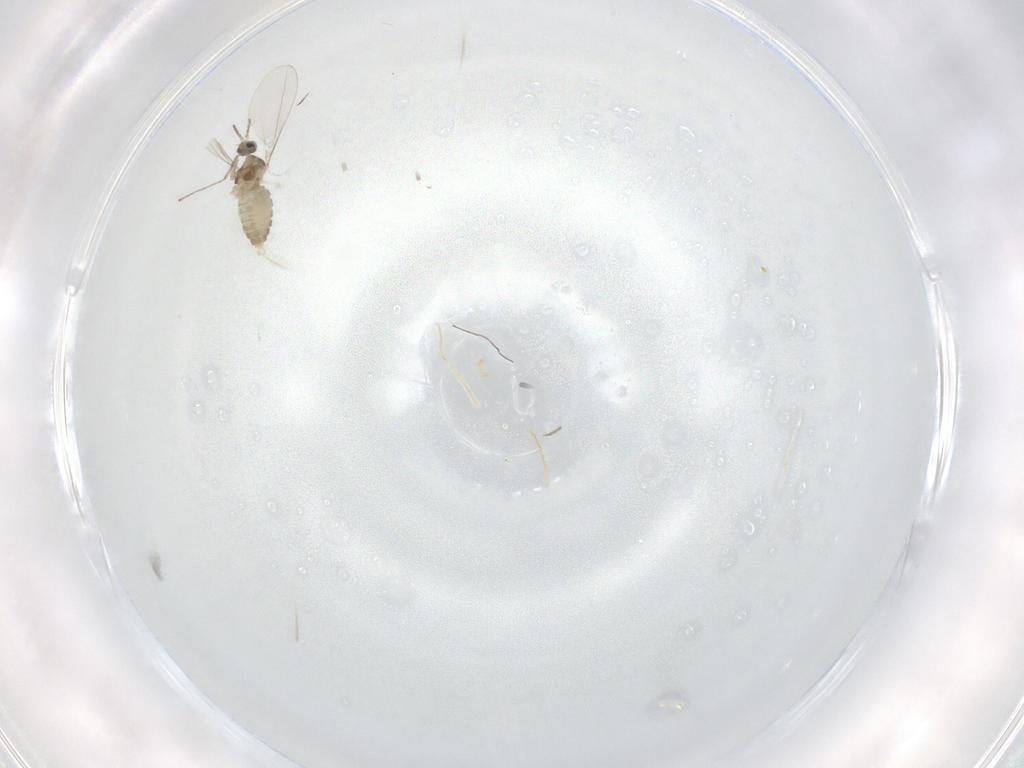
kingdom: Animalia
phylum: Arthropoda
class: Insecta
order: Diptera
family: Cecidomyiidae
